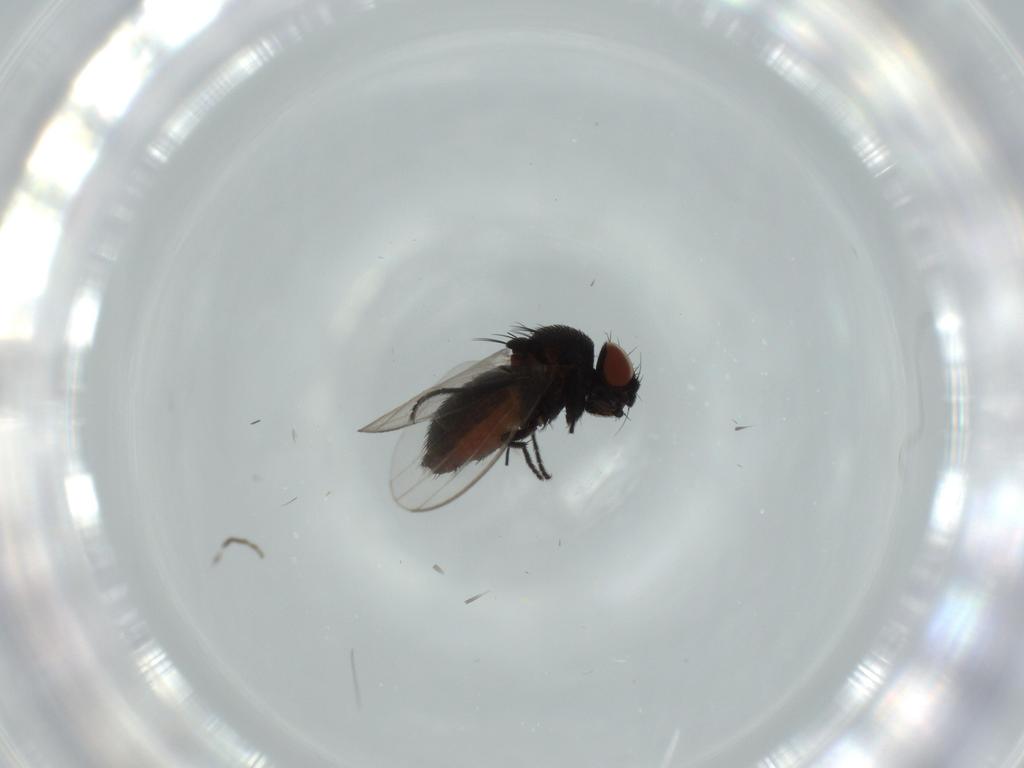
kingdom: Animalia
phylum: Arthropoda
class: Insecta
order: Diptera
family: Milichiidae
